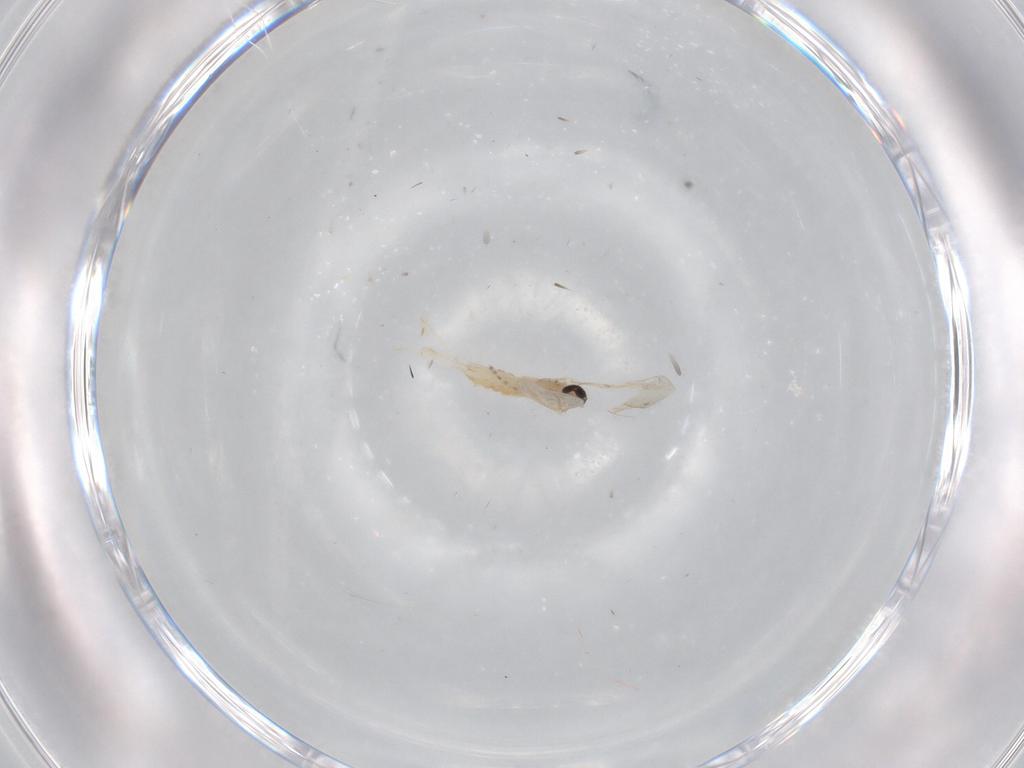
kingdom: Animalia
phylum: Arthropoda
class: Insecta
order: Diptera
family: Cecidomyiidae
